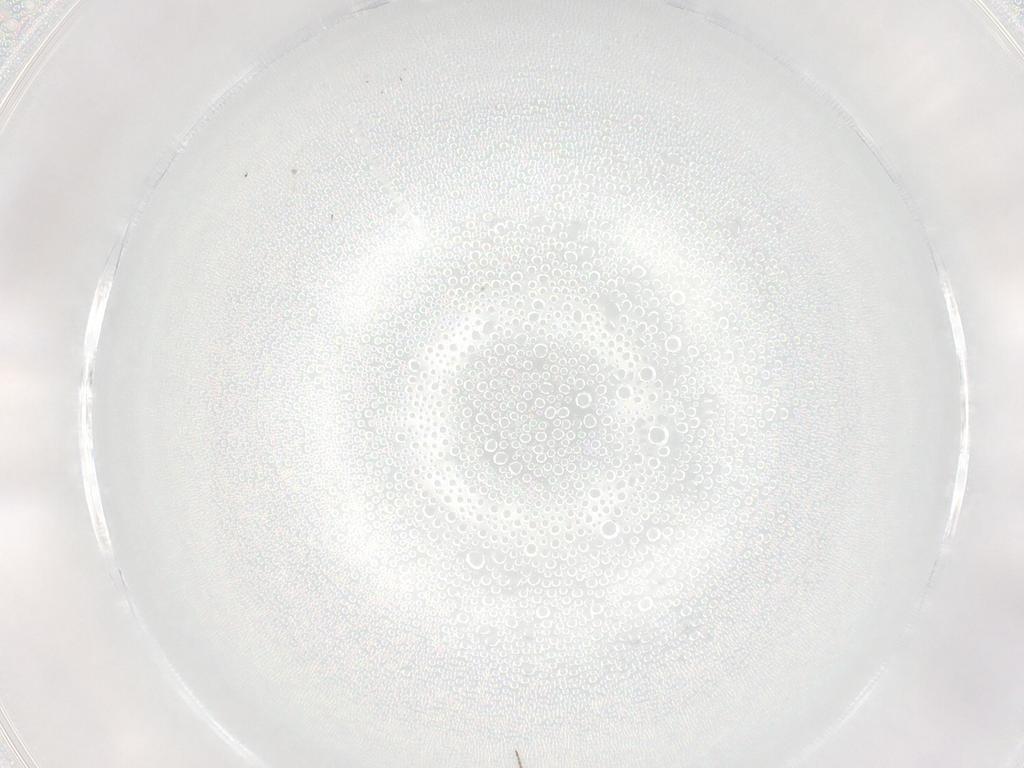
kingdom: Animalia
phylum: Arthropoda
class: Insecta
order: Diptera
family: Ceratopogonidae
